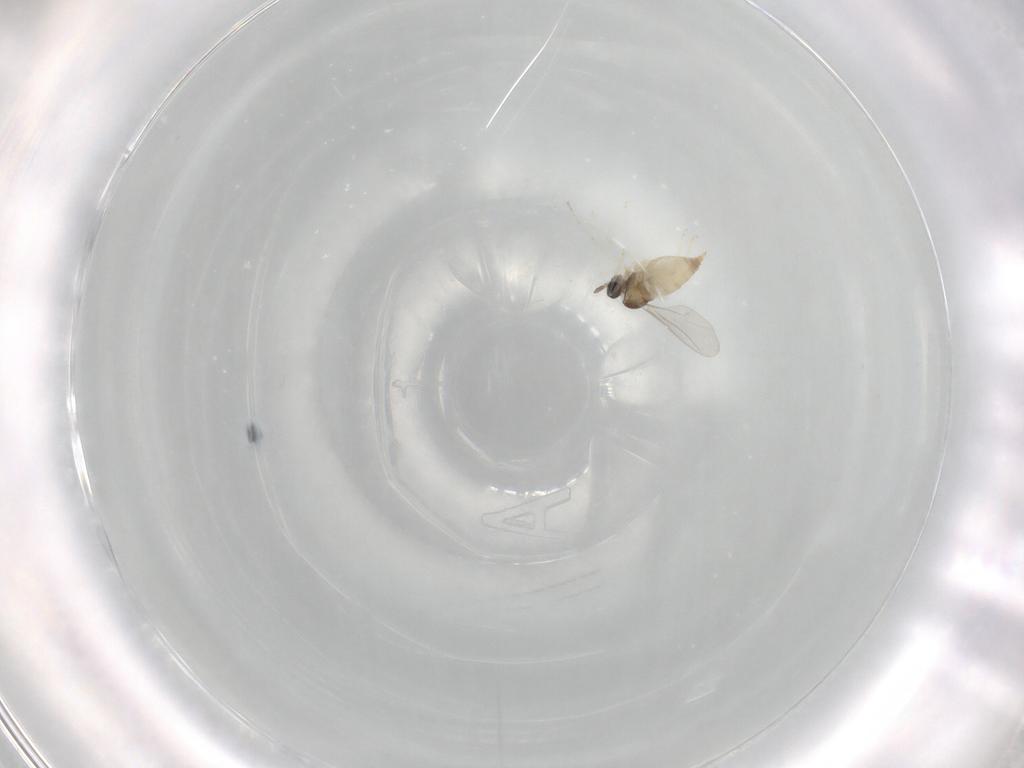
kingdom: Animalia
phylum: Arthropoda
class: Insecta
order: Diptera
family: Cecidomyiidae
